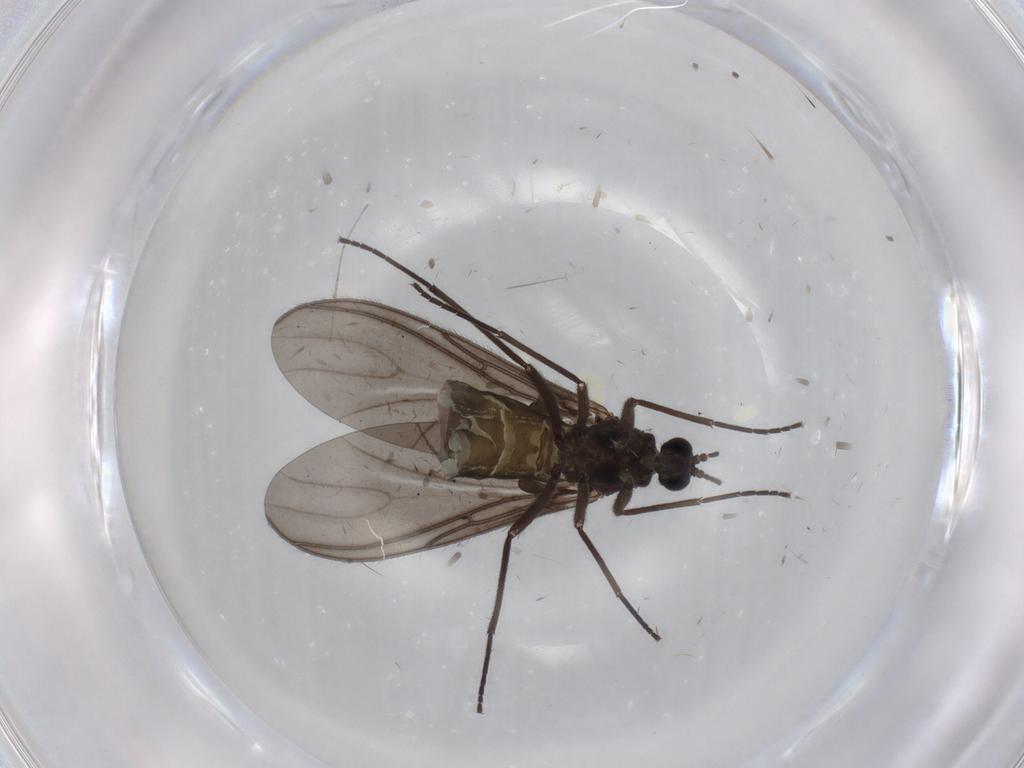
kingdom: Animalia
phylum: Arthropoda
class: Insecta
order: Diptera
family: Sciaridae
